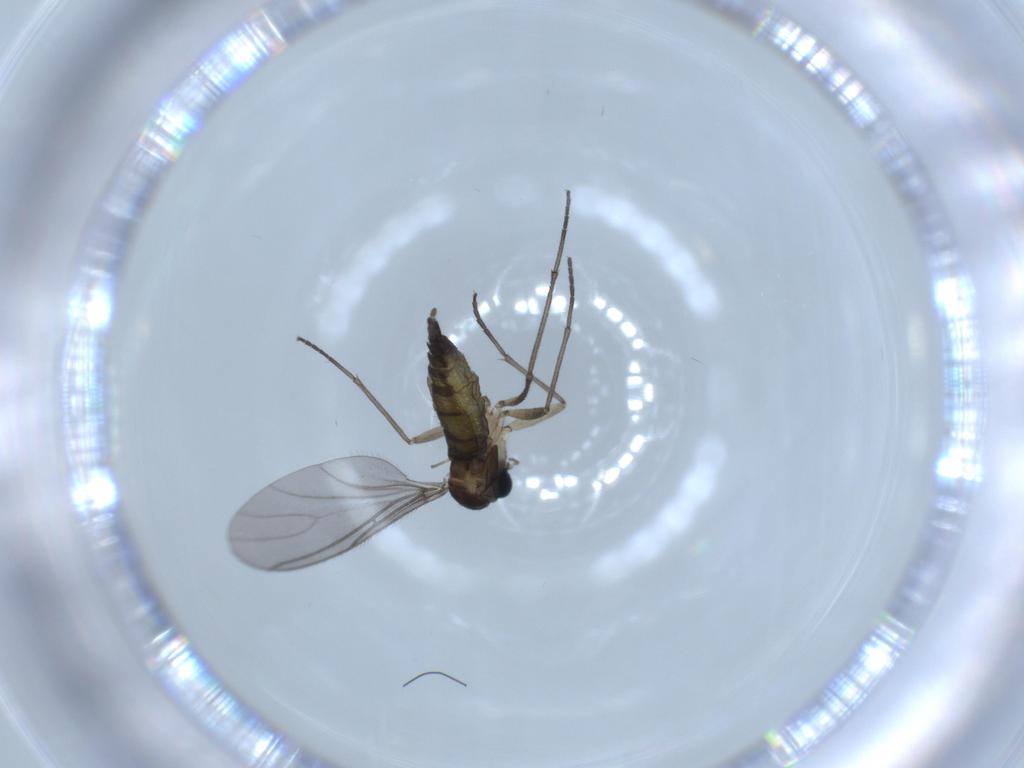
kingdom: Animalia
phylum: Arthropoda
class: Insecta
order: Diptera
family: Sciaridae
